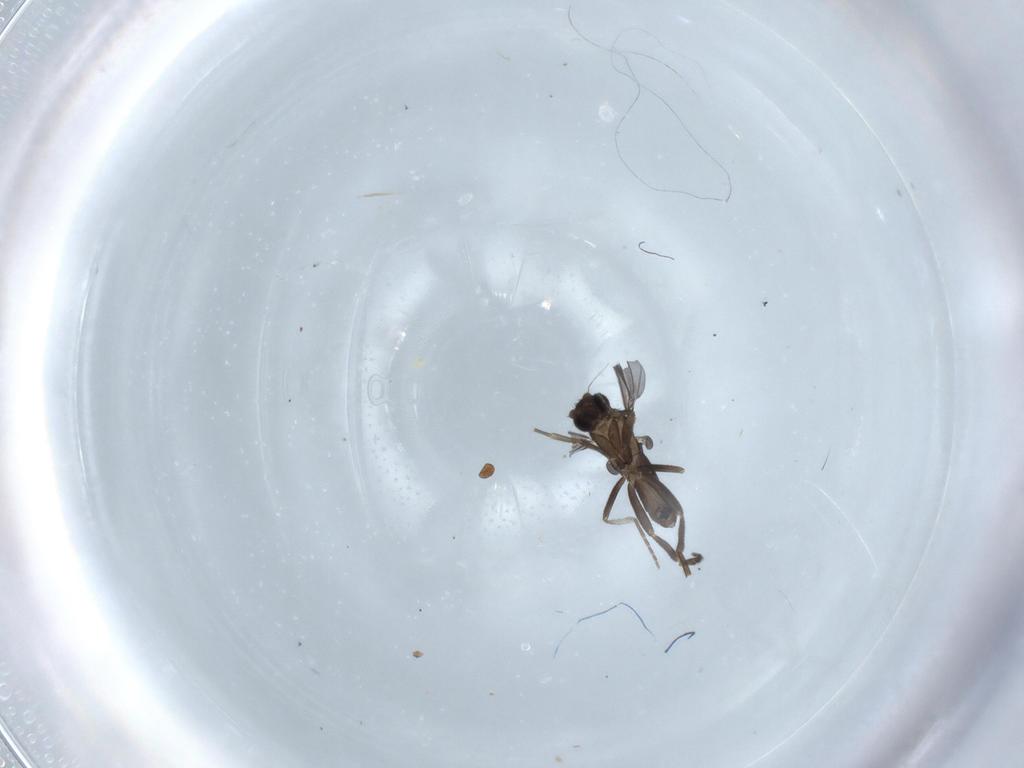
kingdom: Animalia
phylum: Arthropoda
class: Insecta
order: Diptera
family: Phoridae
